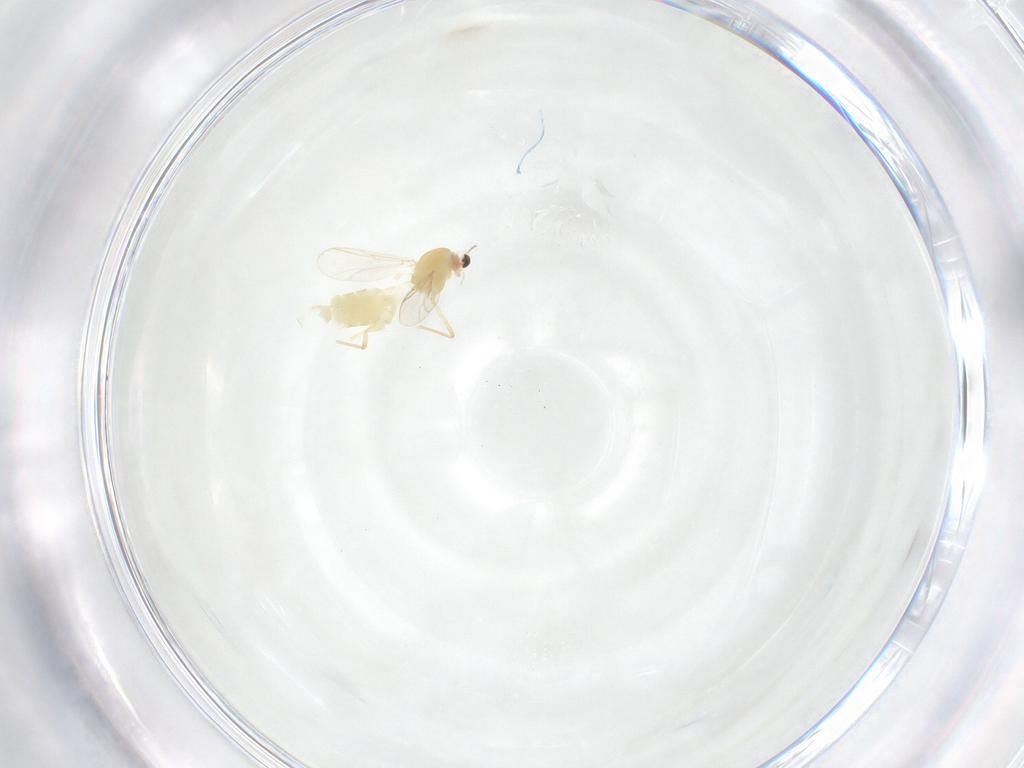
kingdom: Animalia
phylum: Arthropoda
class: Insecta
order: Diptera
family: Chironomidae
